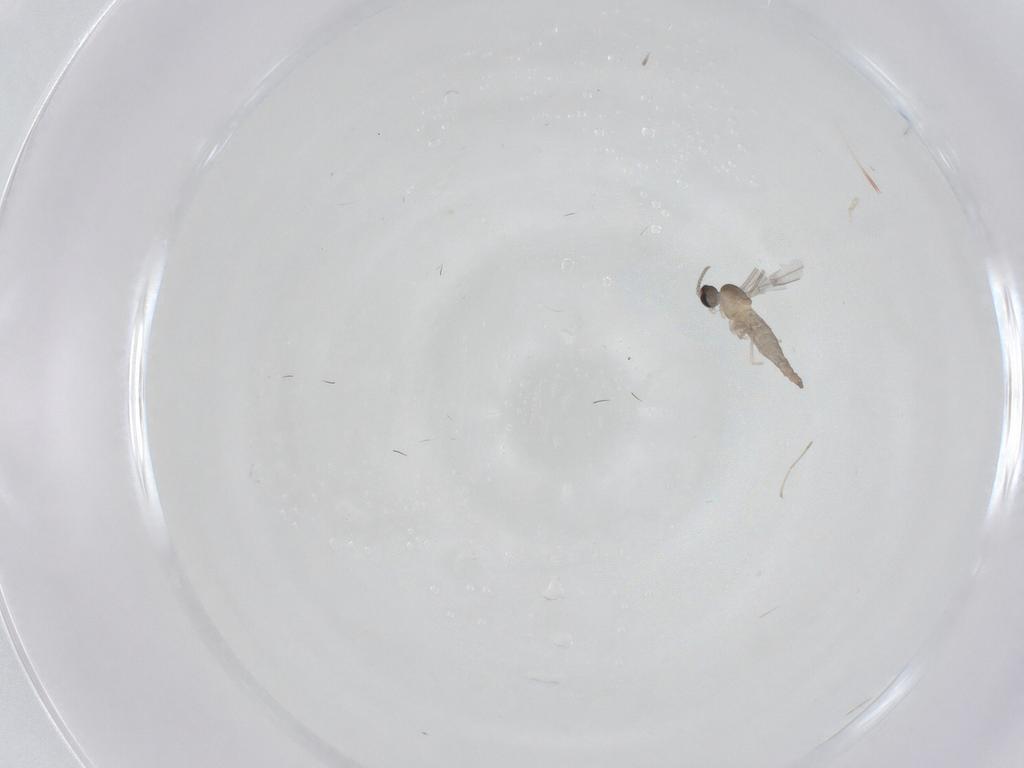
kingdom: Animalia
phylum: Arthropoda
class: Insecta
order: Diptera
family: Cecidomyiidae
